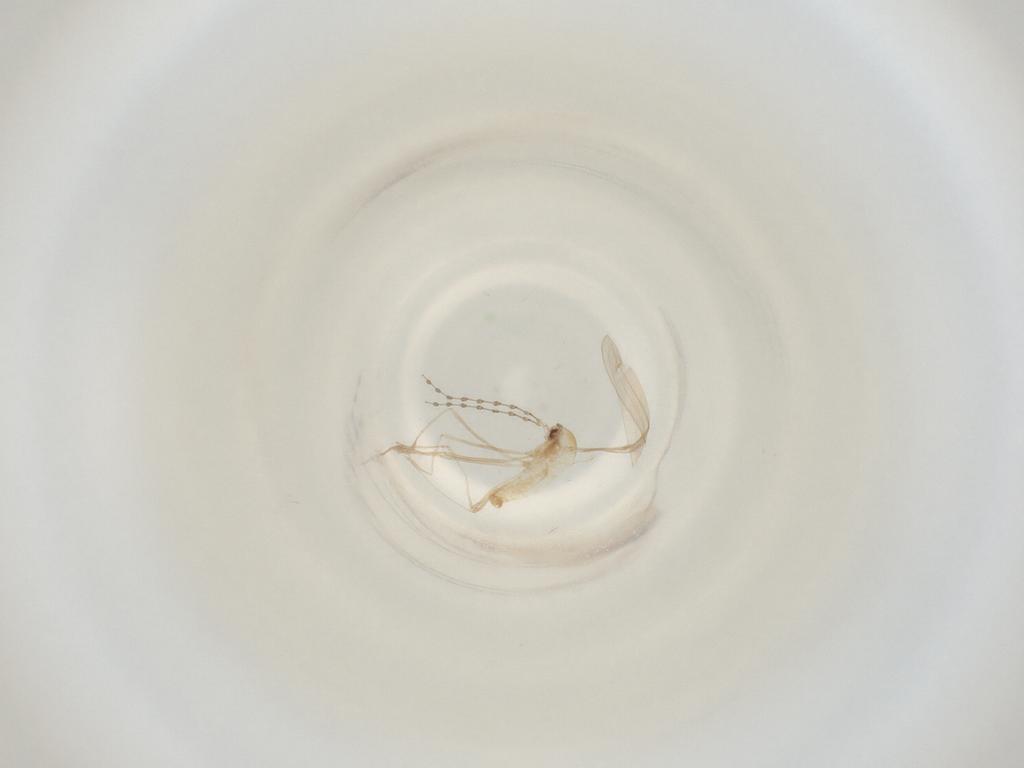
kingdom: Animalia
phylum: Arthropoda
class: Insecta
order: Diptera
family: Cecidomyiidae
